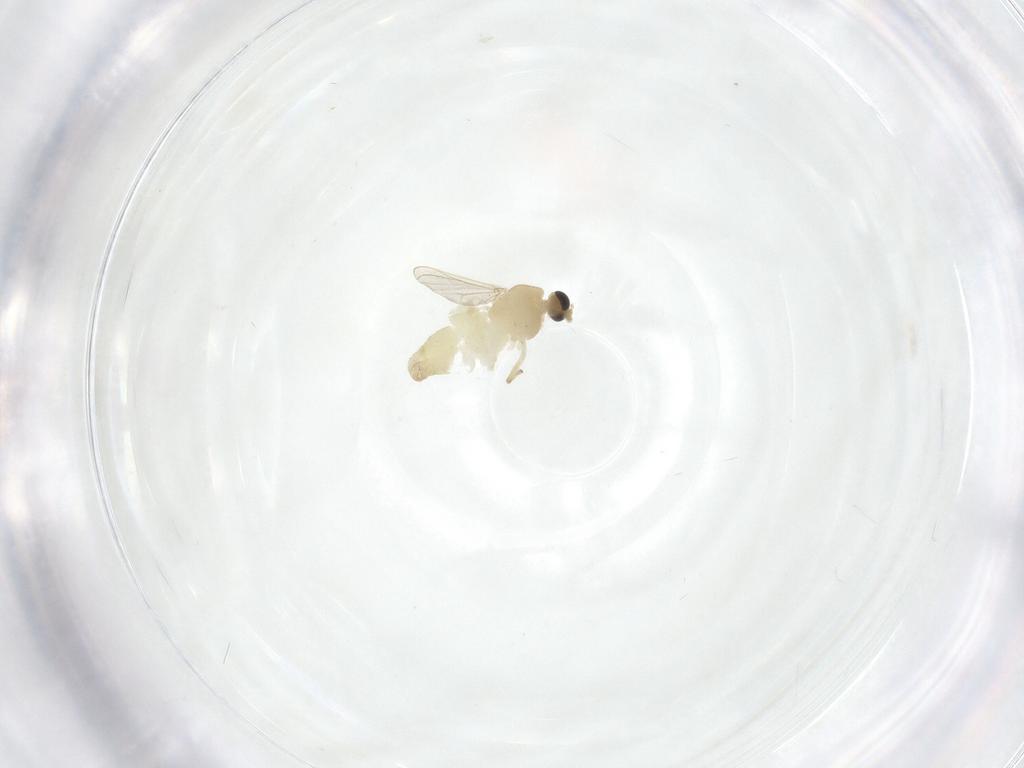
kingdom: Animalia
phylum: Arthropoda
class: Insecta
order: Diptera
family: Chironomidae
